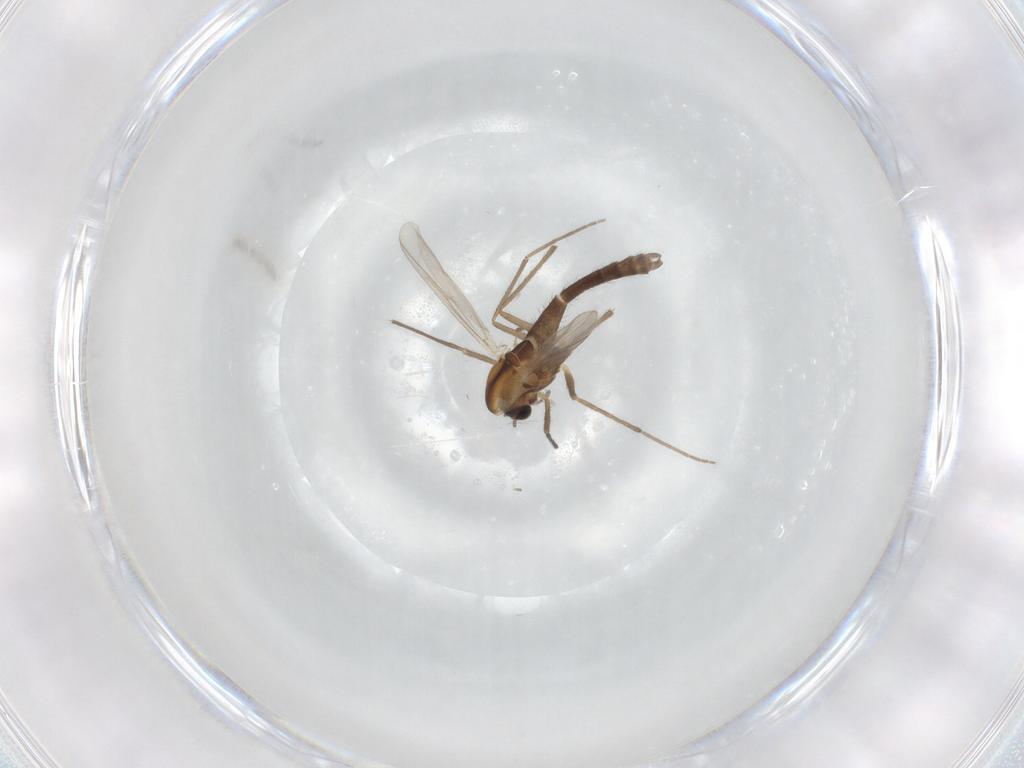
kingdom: Animalia
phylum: Arthropoda
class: Insecta
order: Diptera
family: Chironomidae
